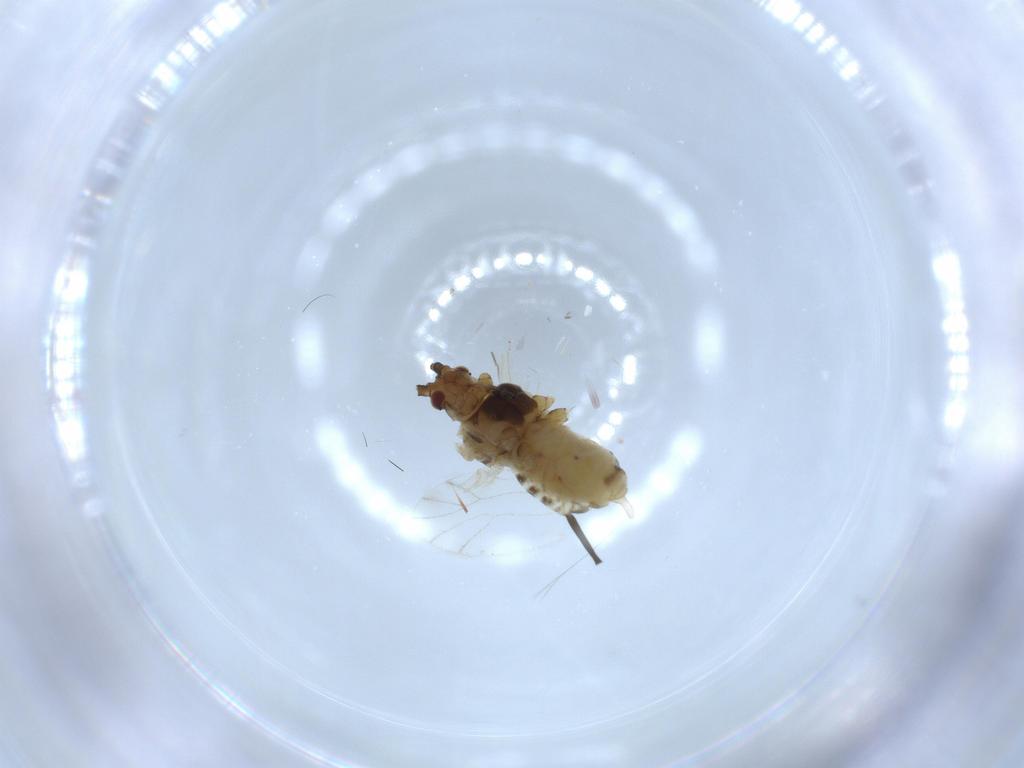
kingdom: Animalia
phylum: Arthropoda
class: Insecta
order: Hemiptera
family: Aphididae
